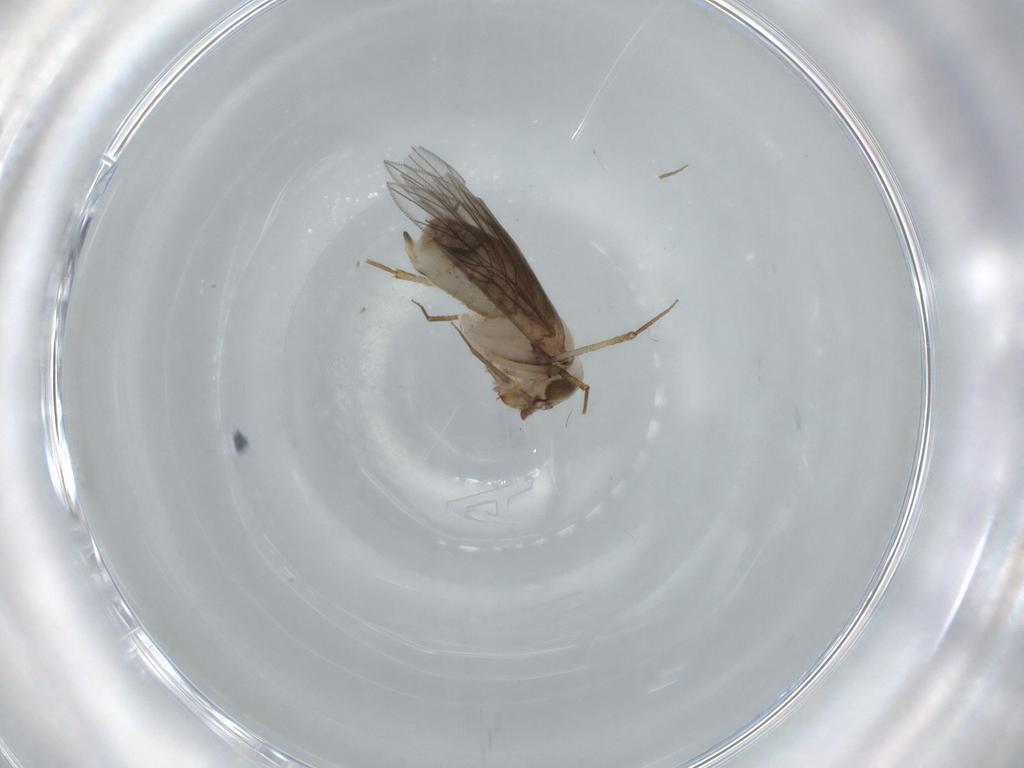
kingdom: Animalia
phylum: Arthropoda
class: Insecta
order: Psocodea
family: Lepidopsocidae
